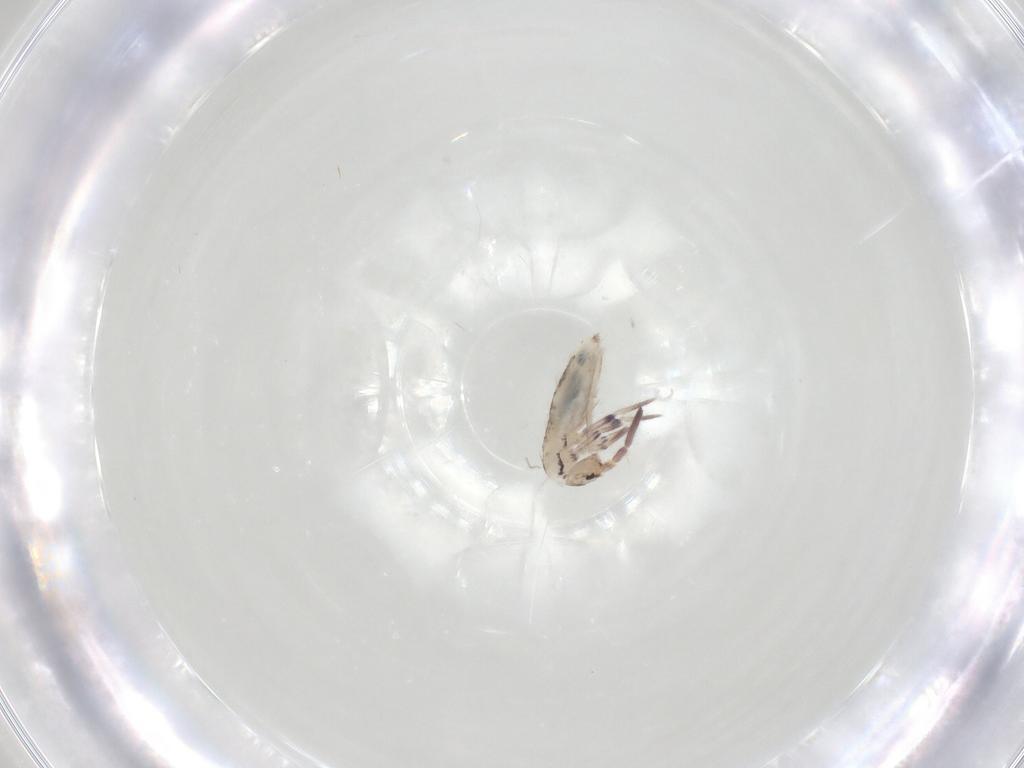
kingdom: Animalia
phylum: Arthropoda
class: Collembola
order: Entomobryomorpha
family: Entomobryidae
